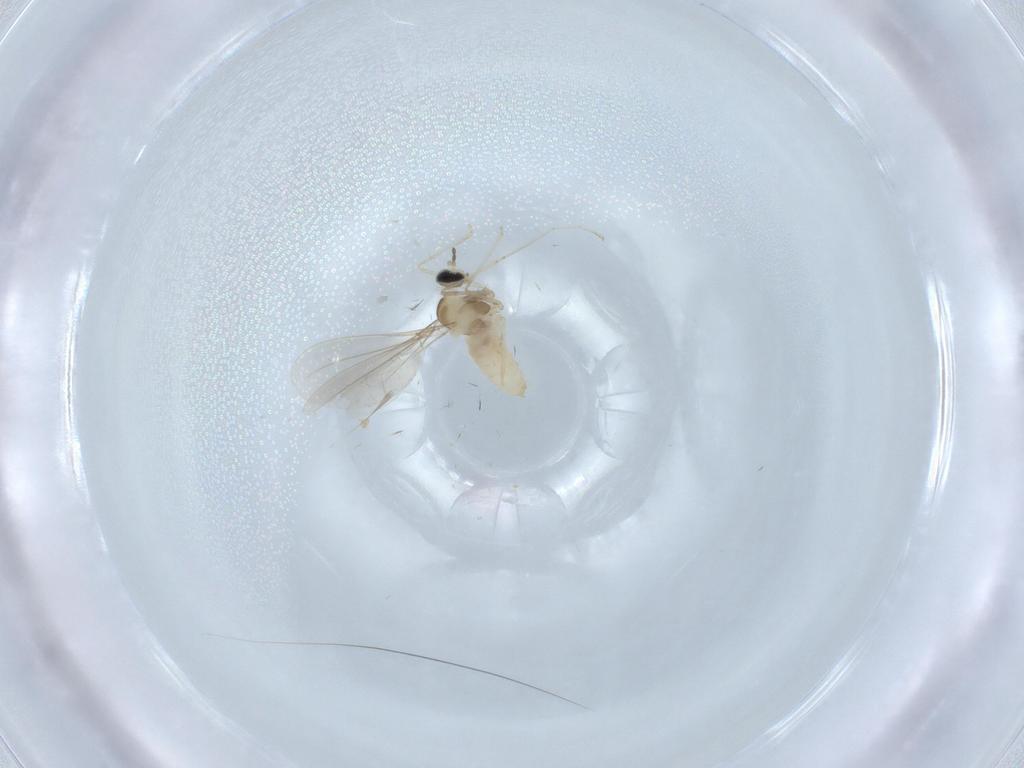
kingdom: Animalia
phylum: Arthropoda
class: Insecta
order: Diptera
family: Cecidomyiidae
